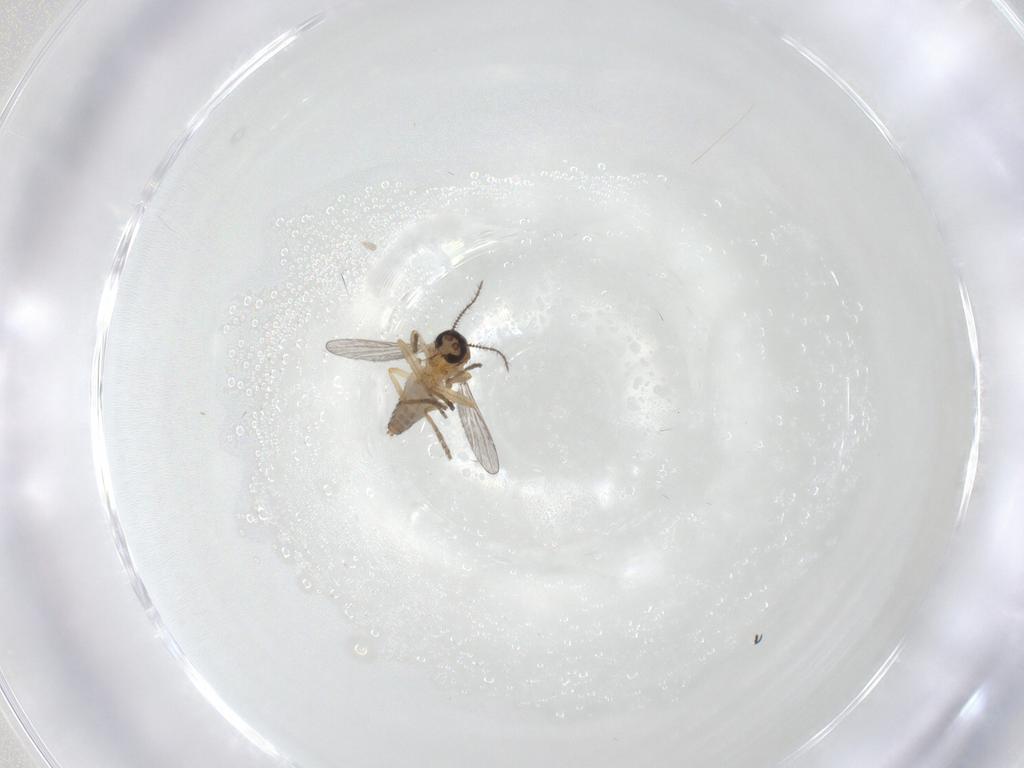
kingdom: Animalia
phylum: Arthropoda
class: Insecta
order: Diptera
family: Ceratopogonidae
